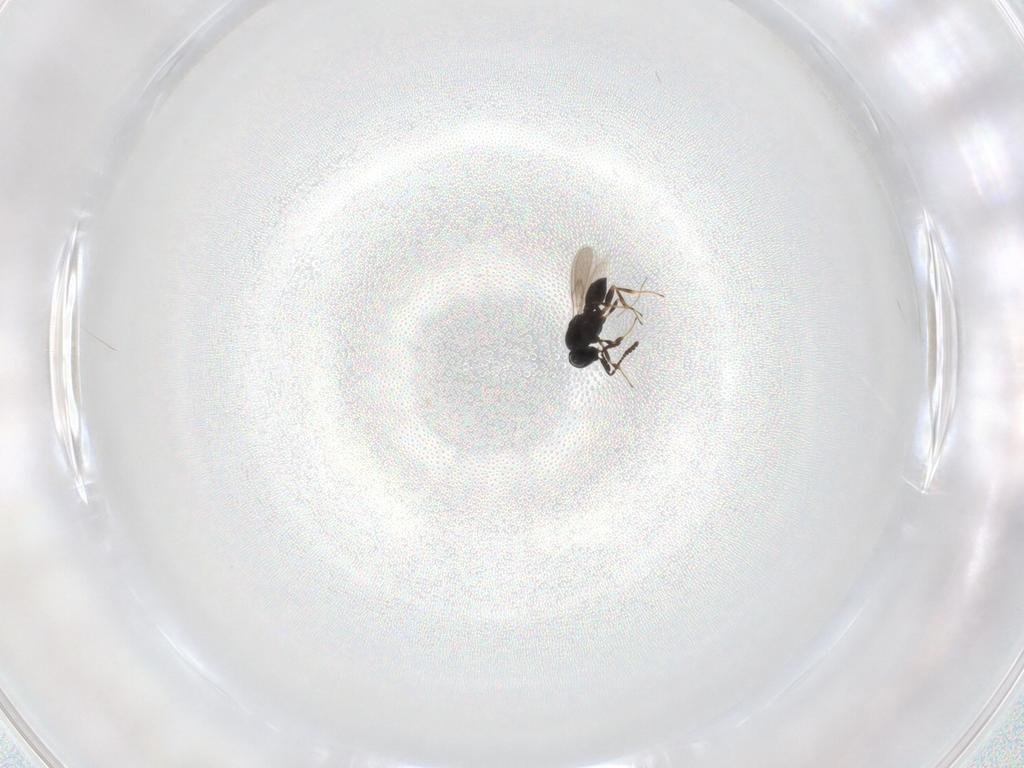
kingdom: Animalia
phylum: Arthropoda
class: Insecta
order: Hymenoptera
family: Scelionidae
